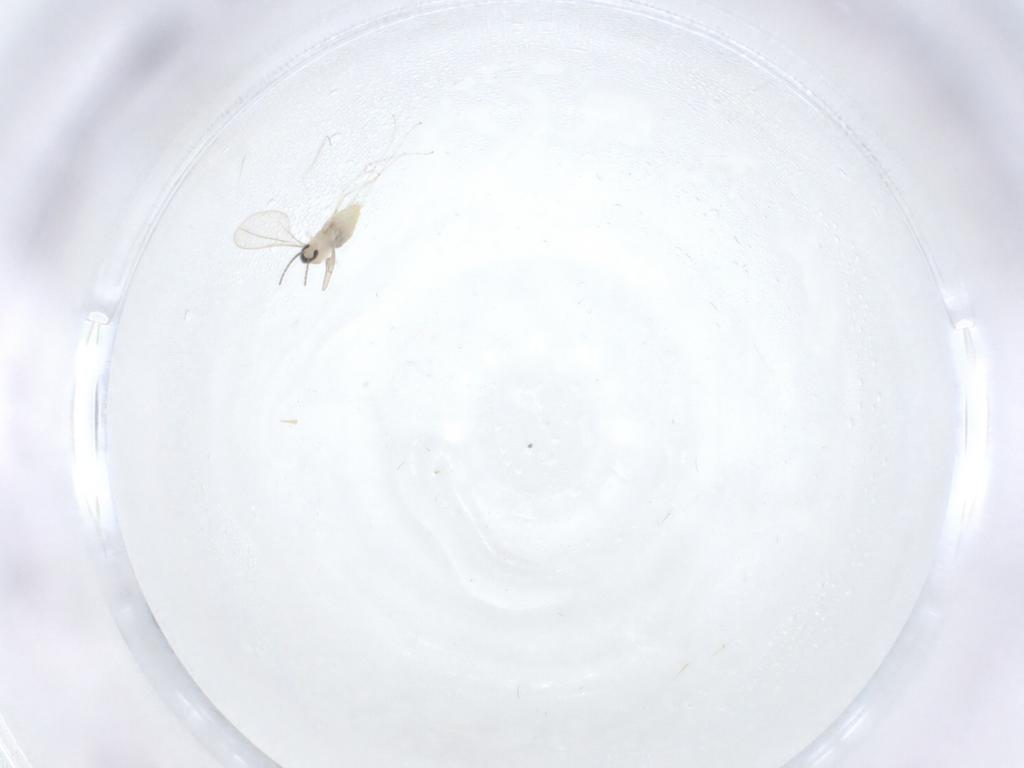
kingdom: Animalia
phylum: Arthropoda
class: Insecta
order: Diptera
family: Cecidomyiidae
